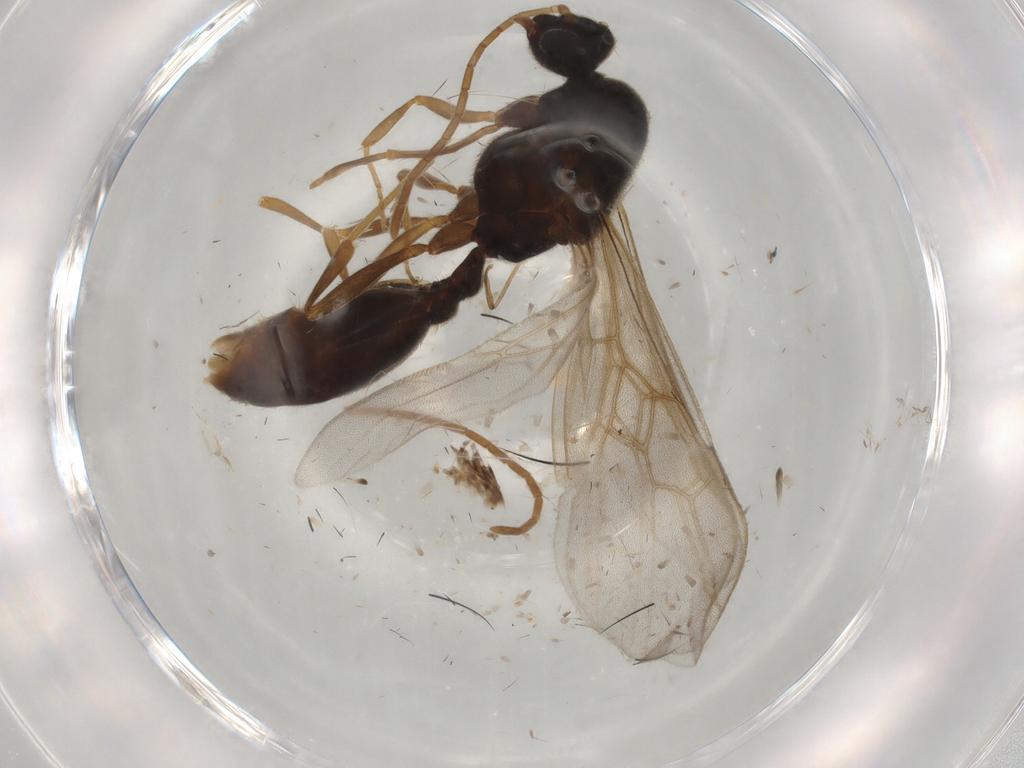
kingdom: Animalia
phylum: Arthropoda
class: Insecta
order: Hymenoptera
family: Formicidae
